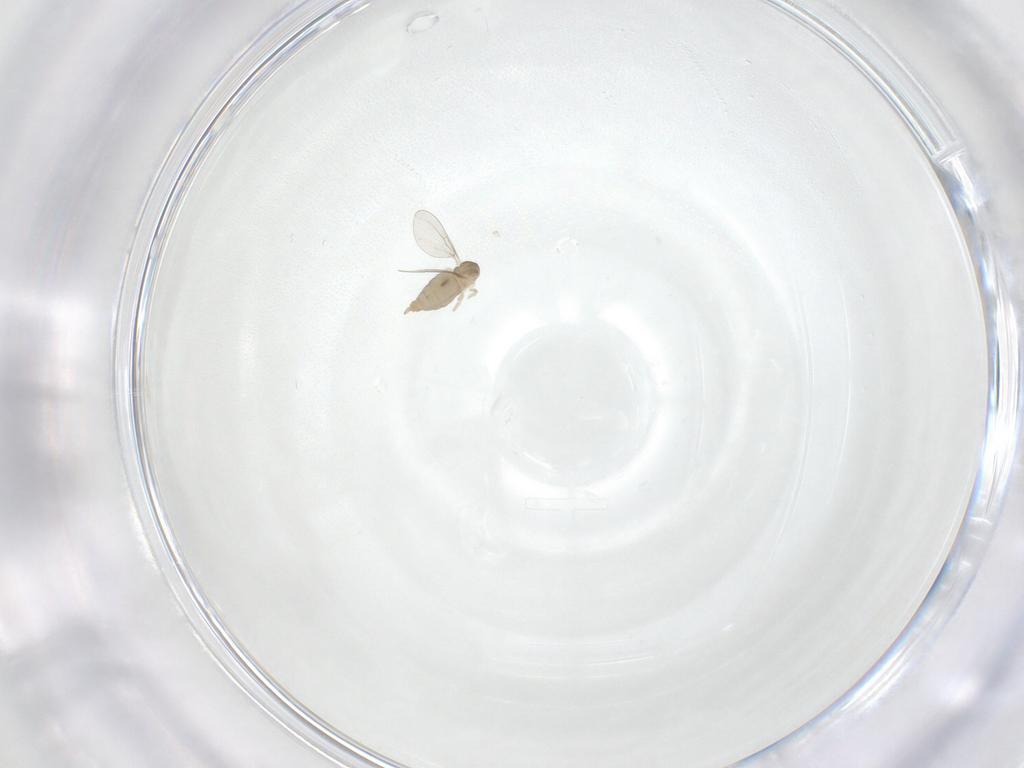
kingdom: Animalia
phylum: Arthropoda
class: Insecta
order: Diptera
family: Cecidomyiidae
